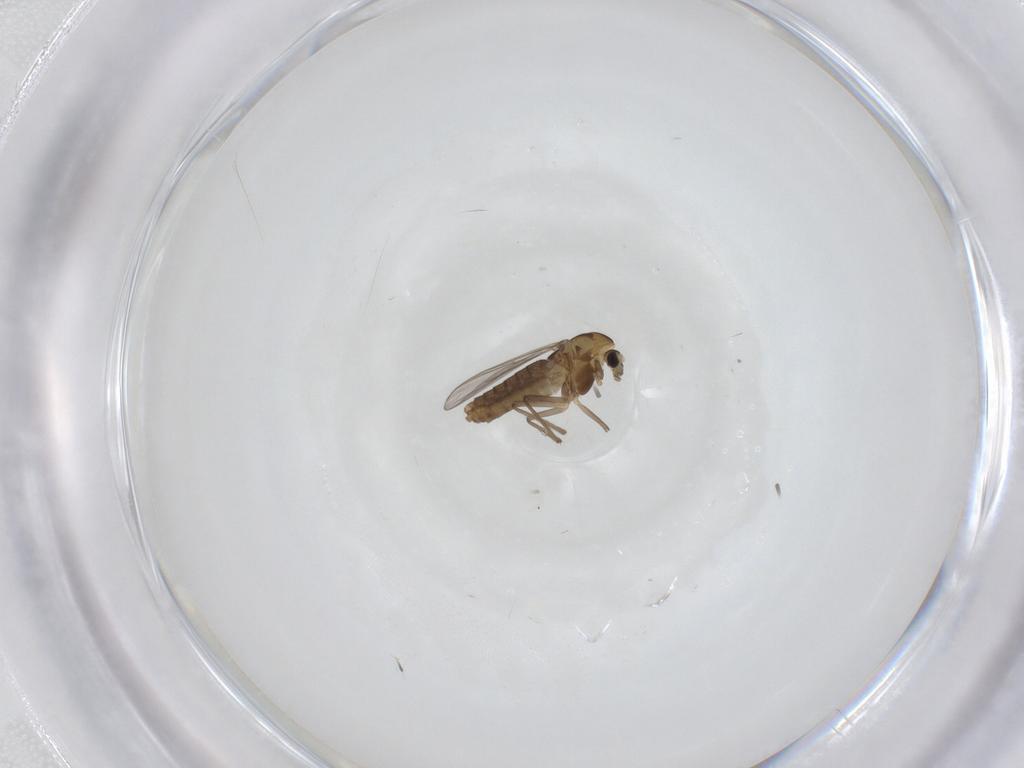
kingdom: Animalia
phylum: Arthropoda
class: Insecta
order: Diptera
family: Chironomidae
